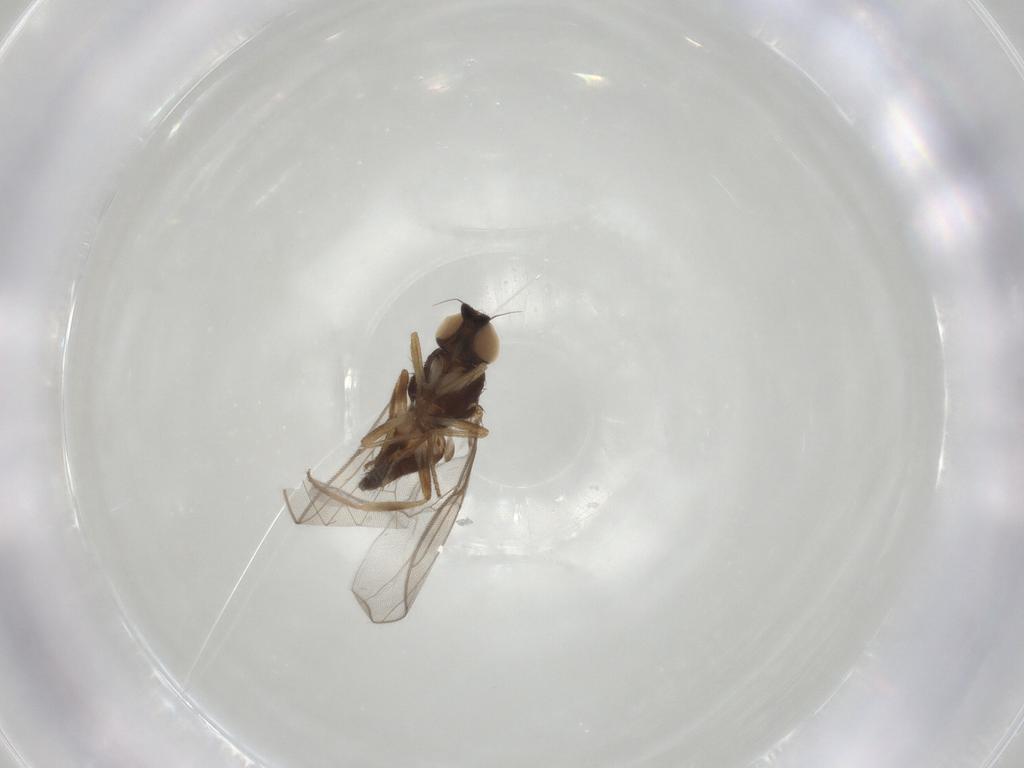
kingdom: Animalia
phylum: Arthropoda
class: Insecta
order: Diptera
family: Chloropidae
